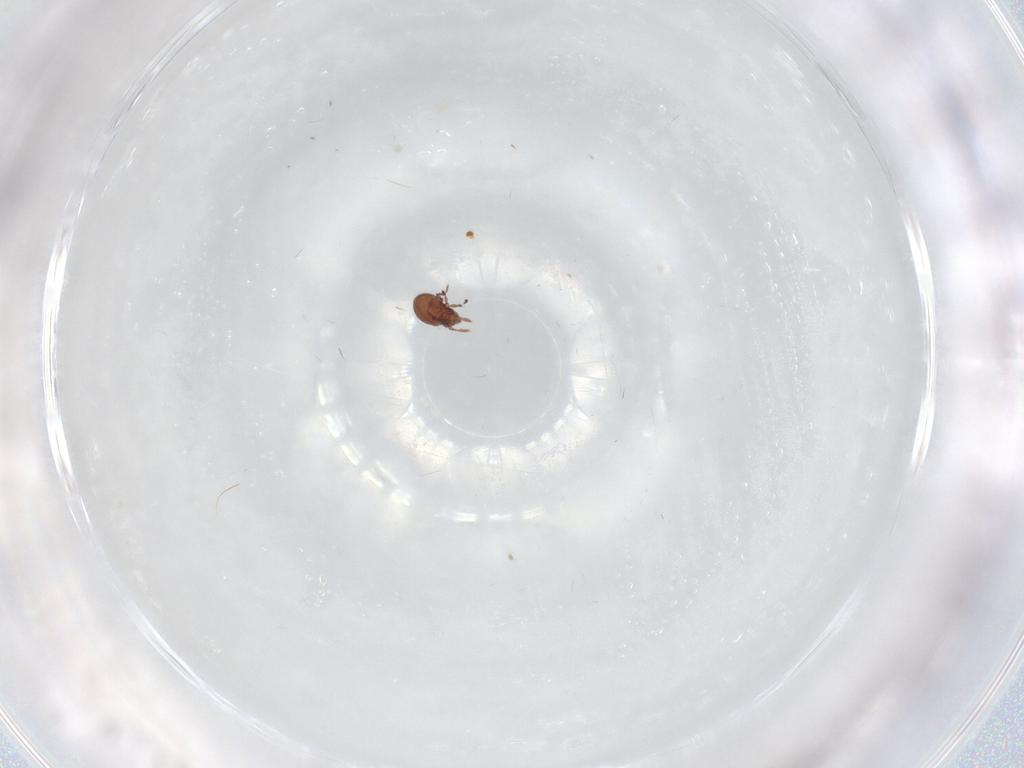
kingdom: Animalia
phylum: Arthropoda
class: Arachnida
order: Sarcoptiformes
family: Ceratoppiidae
